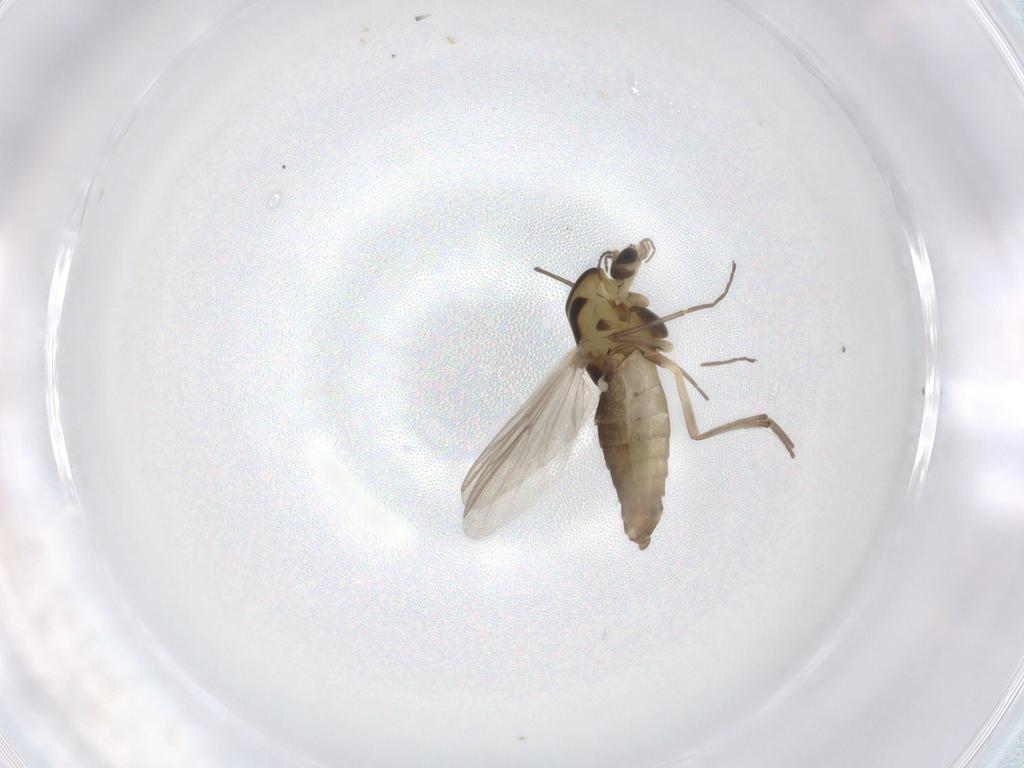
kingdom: Animalia
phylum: Arthropoda
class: Insecta
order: Diptera
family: Chironomidae
